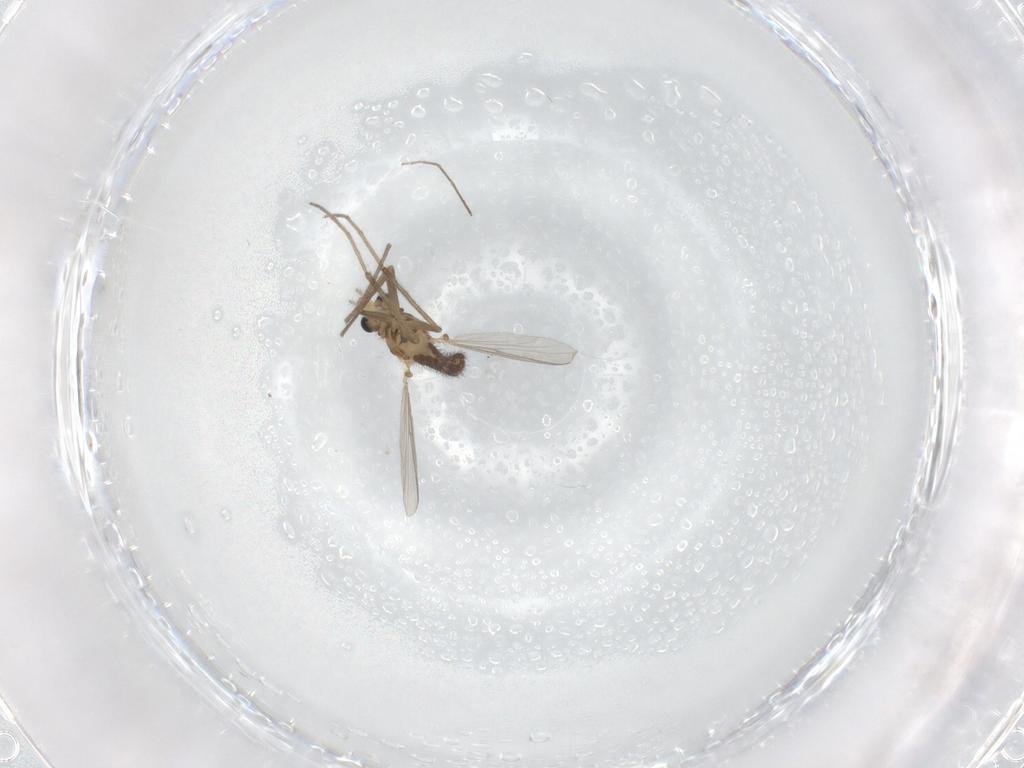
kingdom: Animalia
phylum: Arthropoda
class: Insecta
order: Diptera
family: Chironomidae
